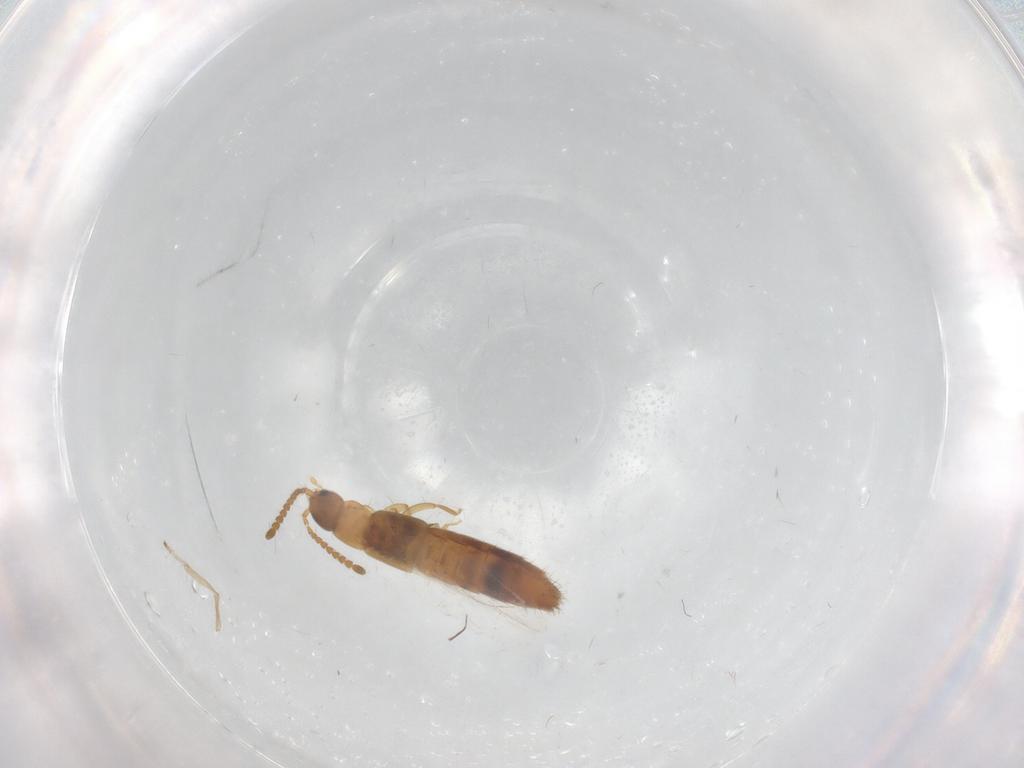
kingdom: Animalia
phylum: Arthropoda
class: Insecta
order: Coleoptera
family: Staphylinidae
